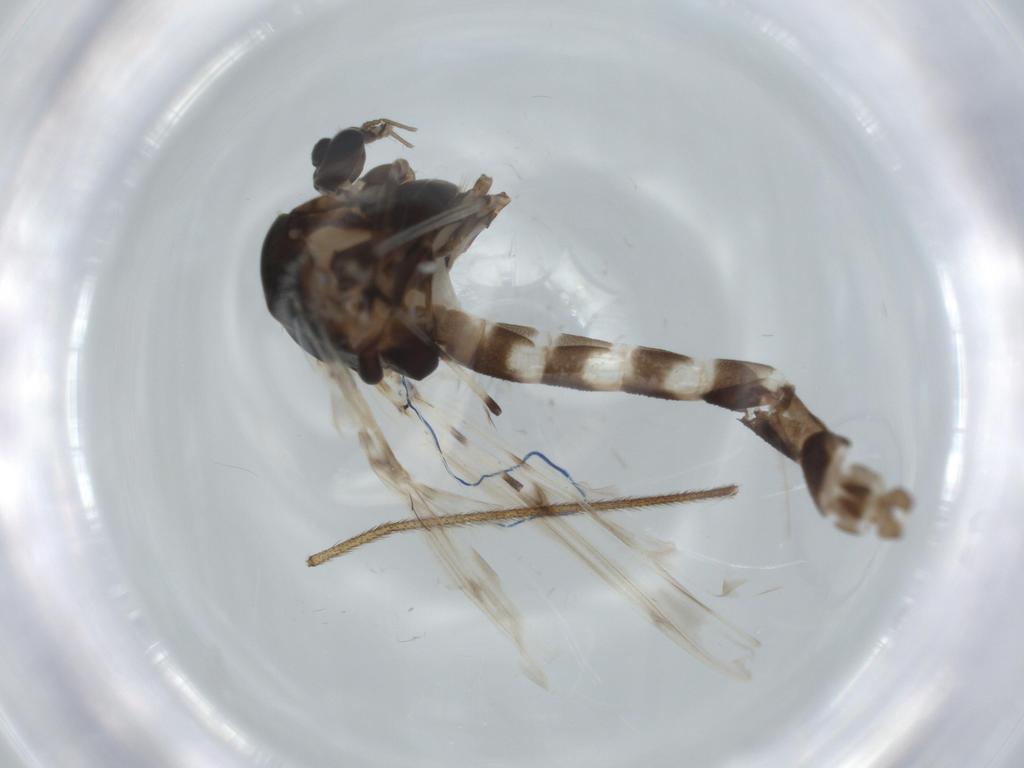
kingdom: Animalia
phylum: Arthropoda
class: Insecta
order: Diptera
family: Chironomidae
